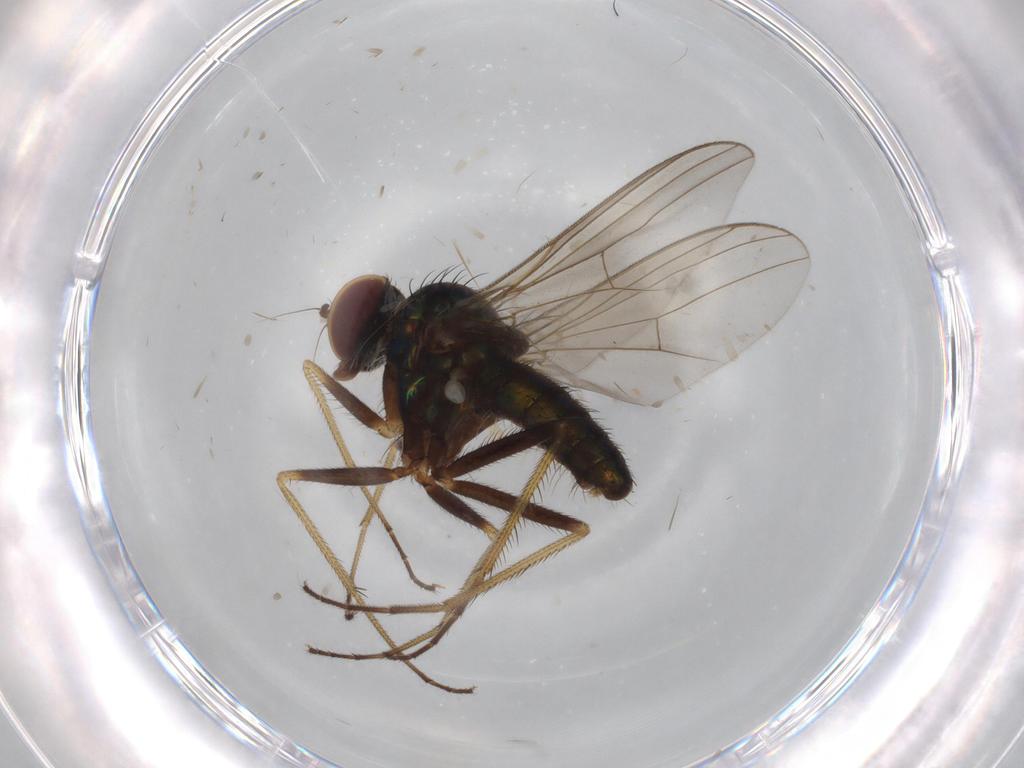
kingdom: Animalia
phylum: Arthropoda
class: Insecta
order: Diptera
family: Dolichopodidae
